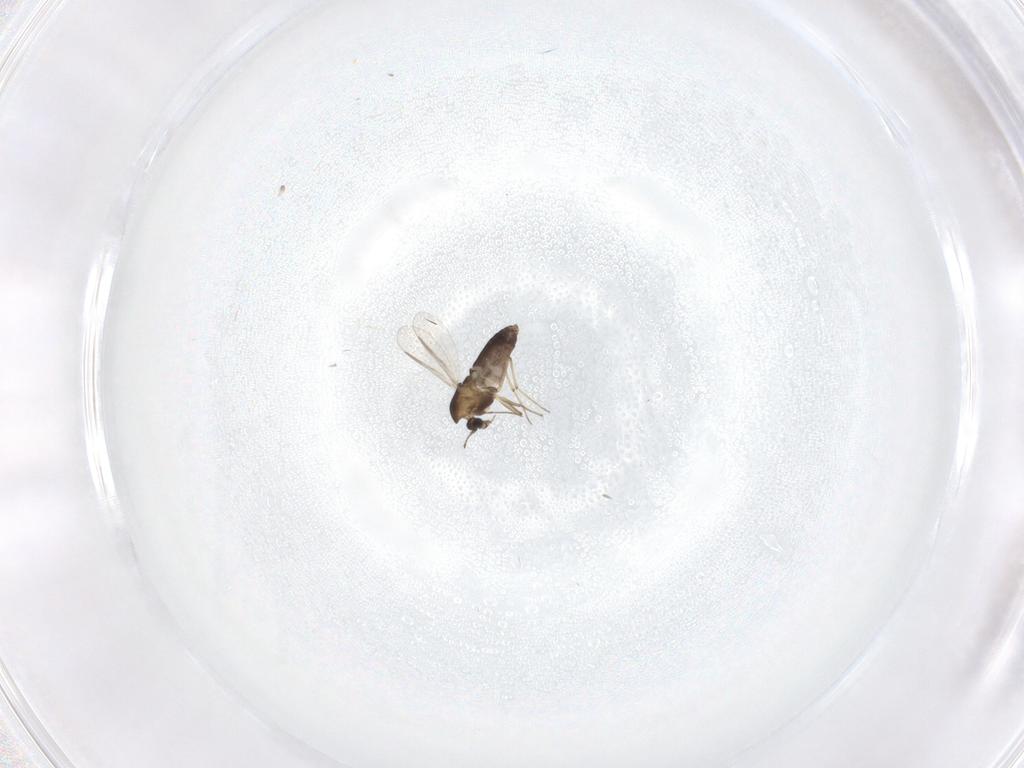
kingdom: Animalia
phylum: Arthropoda
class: Insecta
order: Diptera
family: Chironomidae
